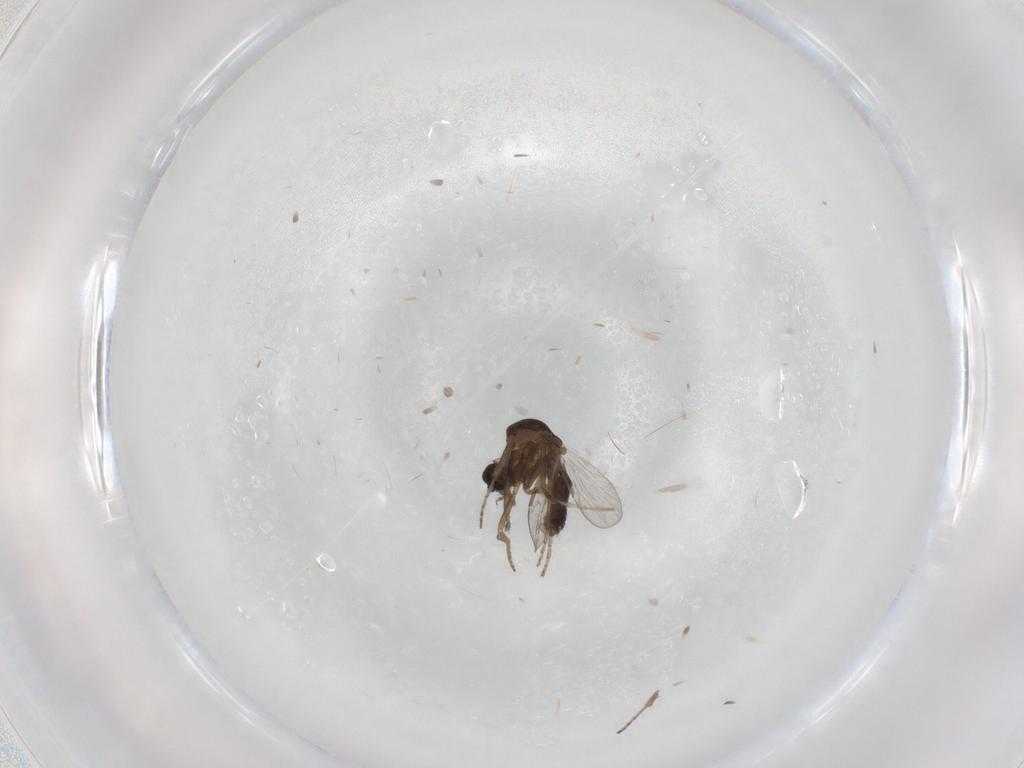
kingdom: Animalia
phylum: Arthropoda
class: Insecta
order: Diptera
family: Ceratopogonidae
